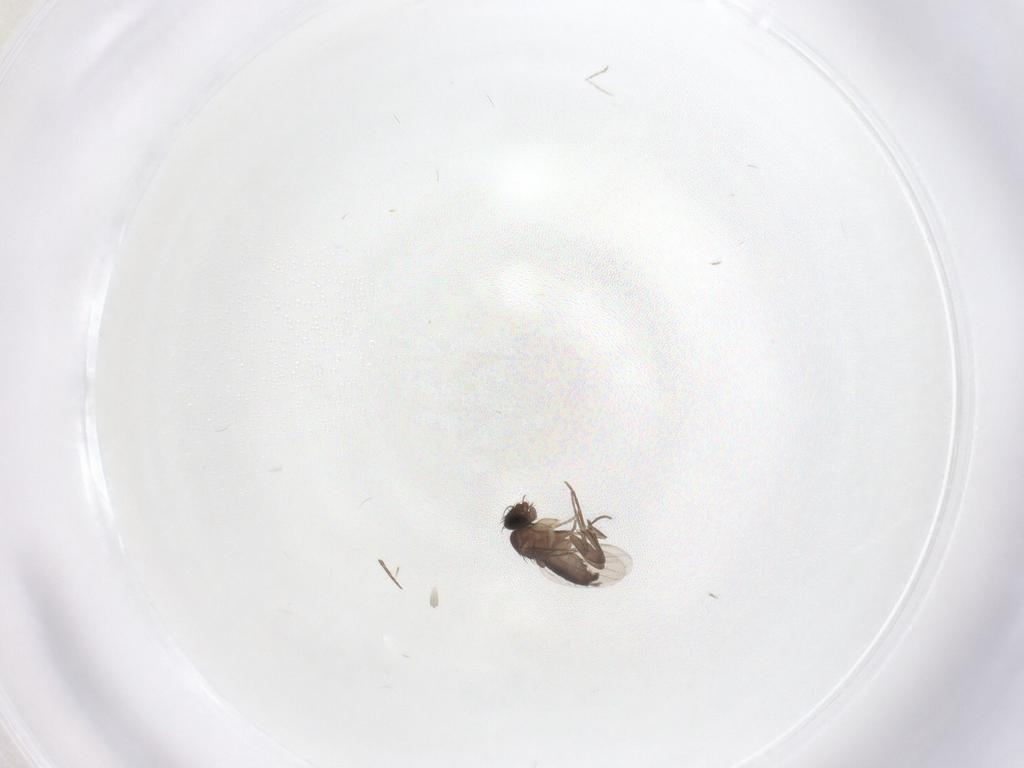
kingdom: Animalia
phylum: Arthropoda
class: Insecta
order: Diptera
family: Phoridae
